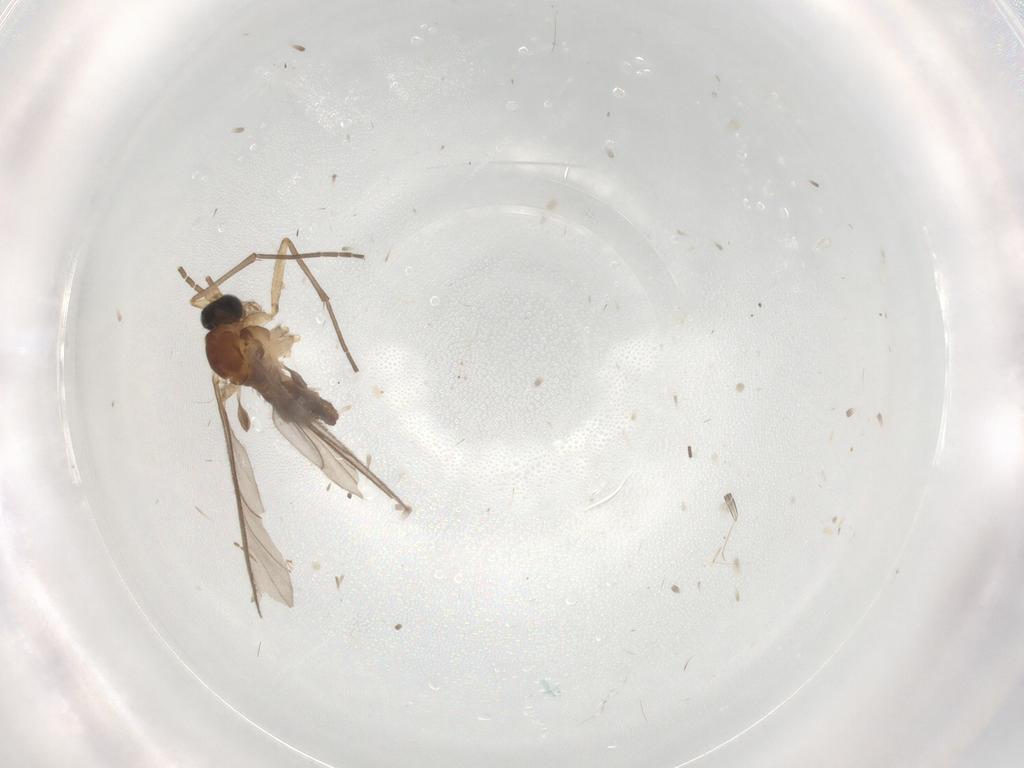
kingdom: Animalia
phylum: Arthropoda
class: Insecta
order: Diptera
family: Sciaridae
